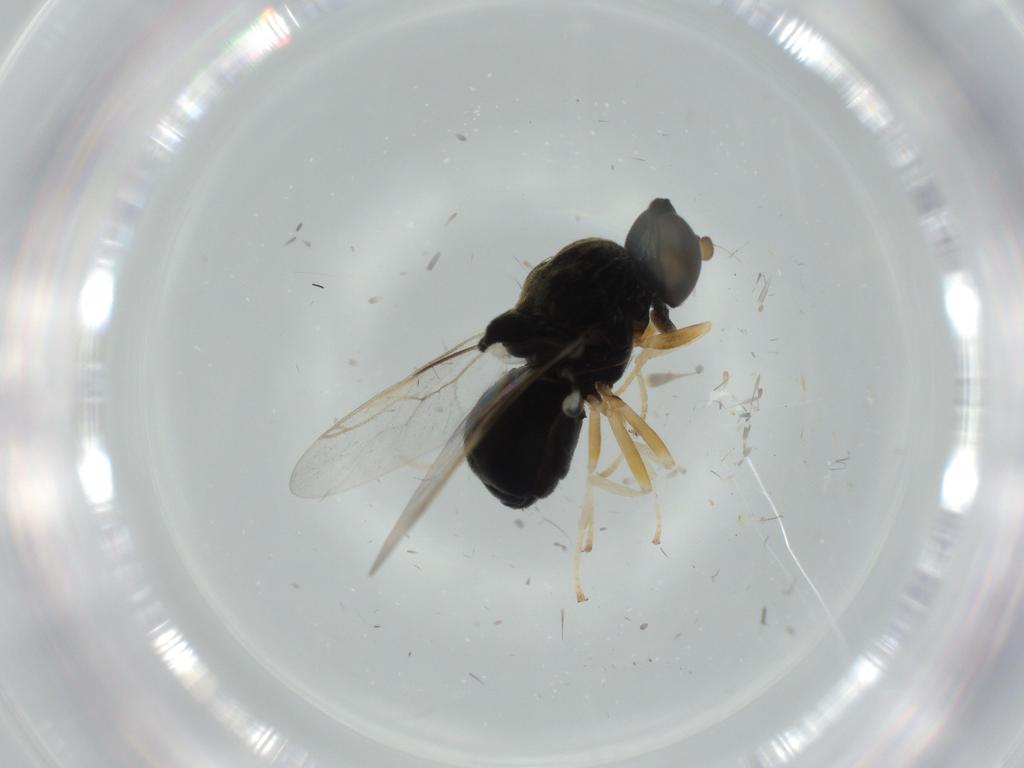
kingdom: Animalia
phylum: Arthropoda
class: Insecta
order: Diptera
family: Stratiomyidae
